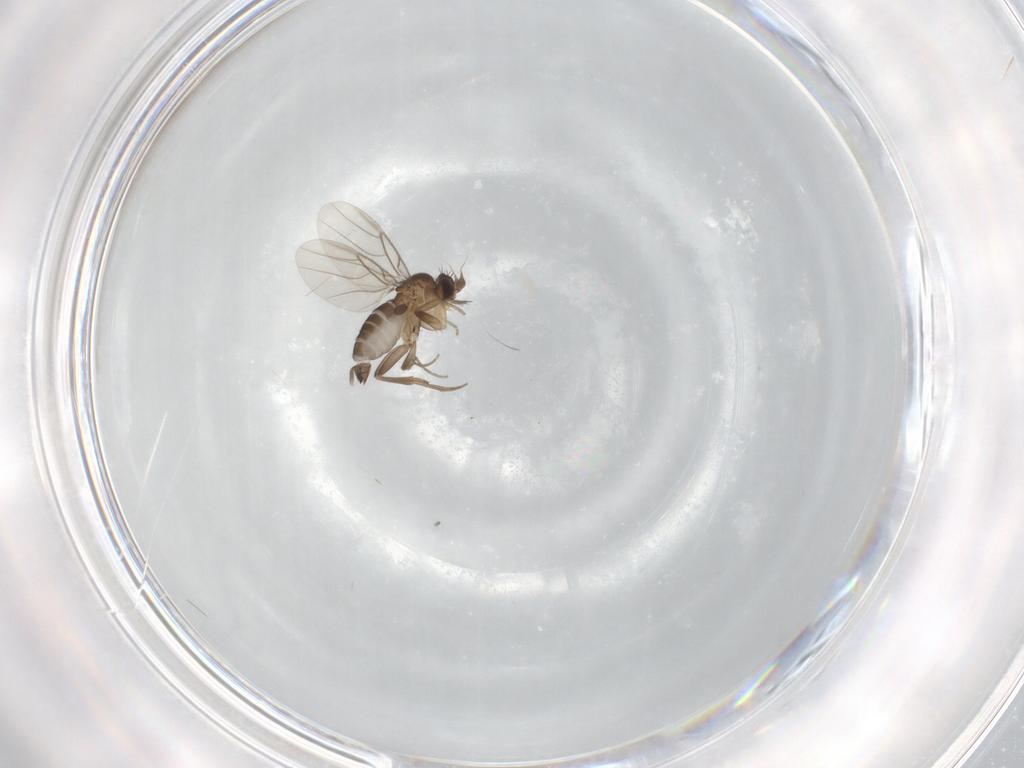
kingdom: Animalia
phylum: Arthropoda
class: Insecta
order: Diptera
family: Phoridae
